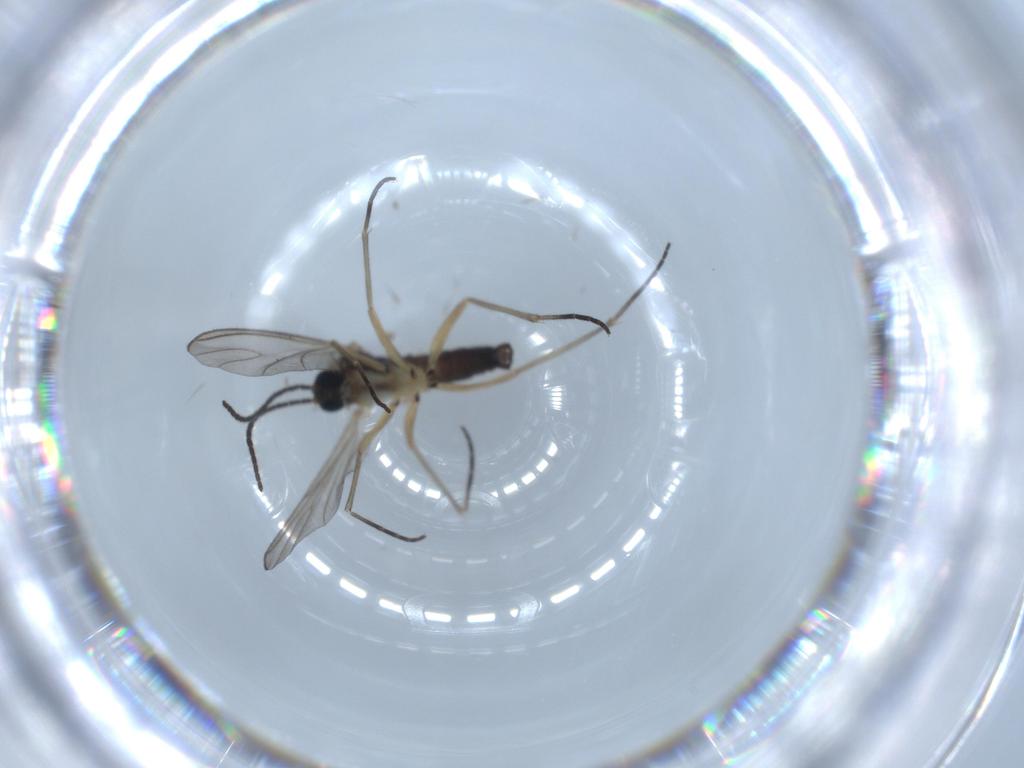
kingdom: Animalia
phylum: Arthropoda
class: Insecta
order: Diptera
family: Sciaridae
